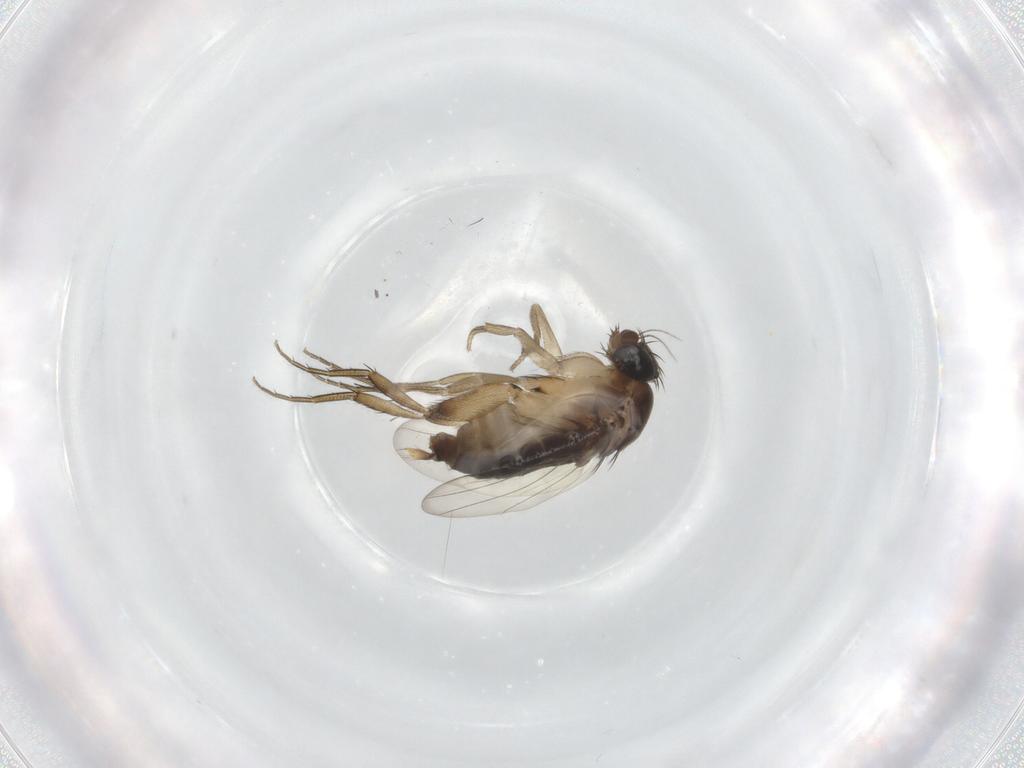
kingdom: Animalia
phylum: Arthropoda
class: Insecta
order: Diptera
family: Phoridae
